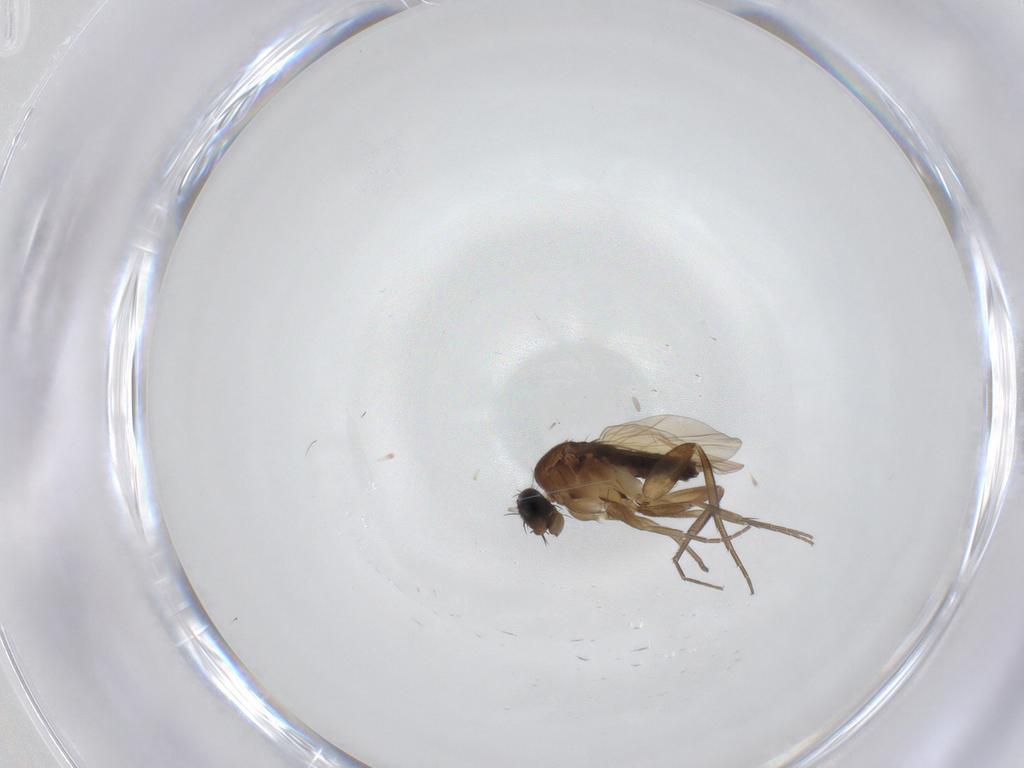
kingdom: Animalia
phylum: Arthropoda
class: Insecta
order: Diptera
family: Phoridae
